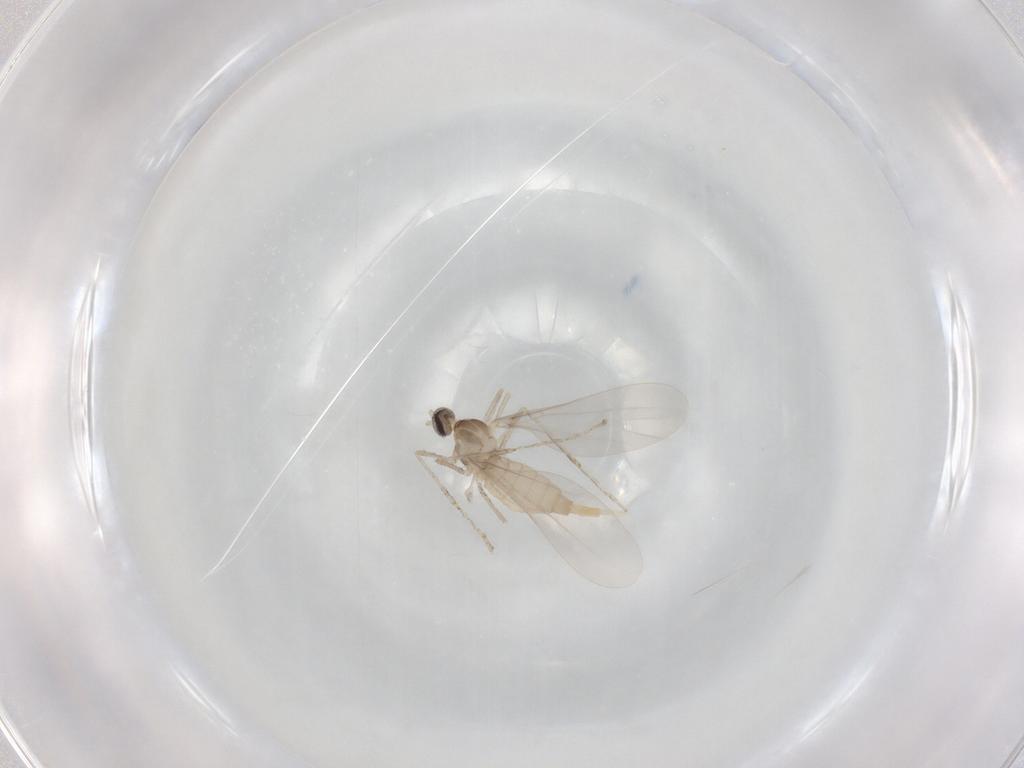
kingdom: Animalia
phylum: Arthropoda
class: Insecta
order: Diptera
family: Cecidomyiidae
